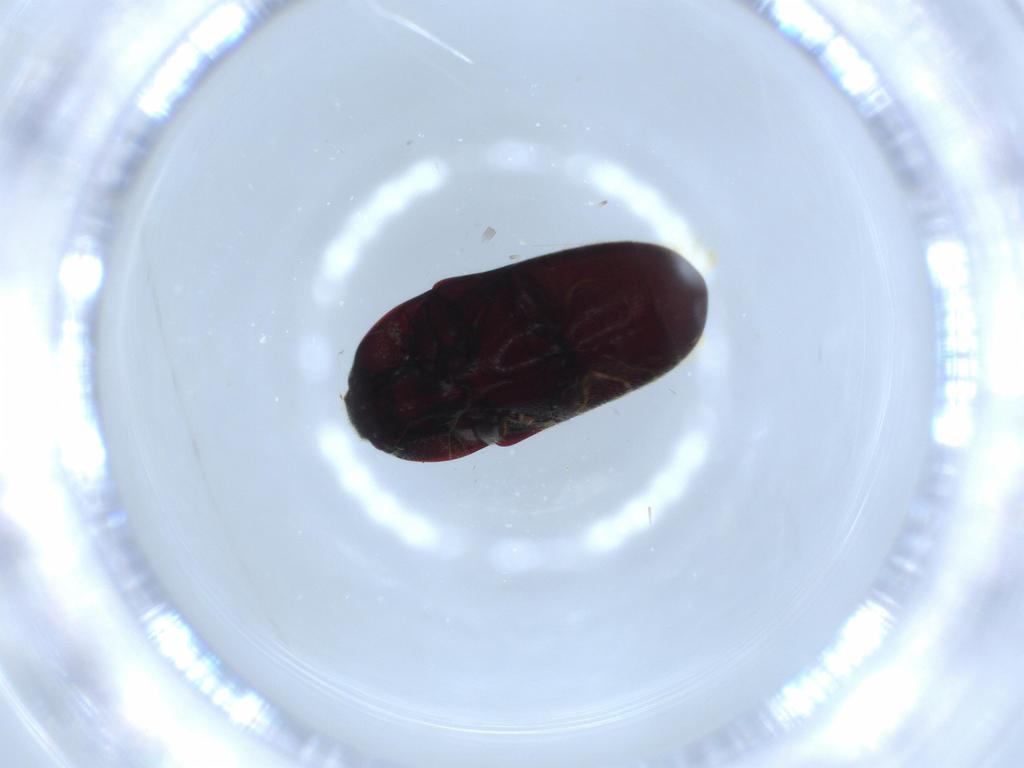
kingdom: Animalia
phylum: Arthropoda
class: Insecta
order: Coleoptera
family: Throscidae
